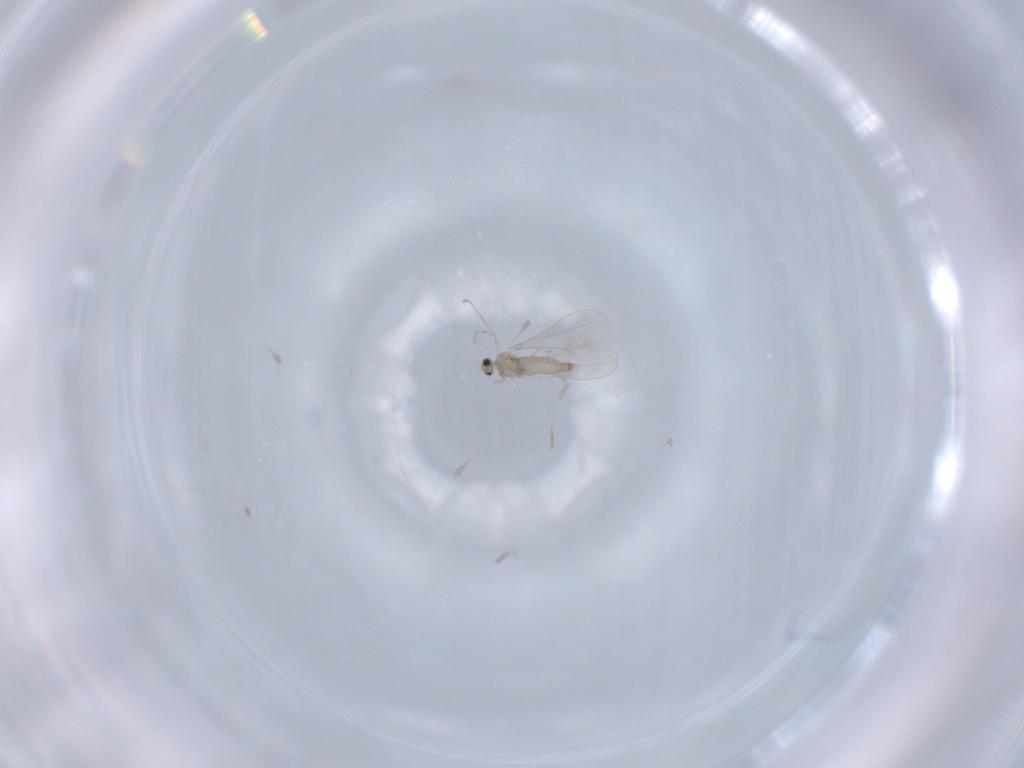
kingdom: Animalia
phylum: Arthropoda
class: Insecta
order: Diptera
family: Cecidomyiidae
